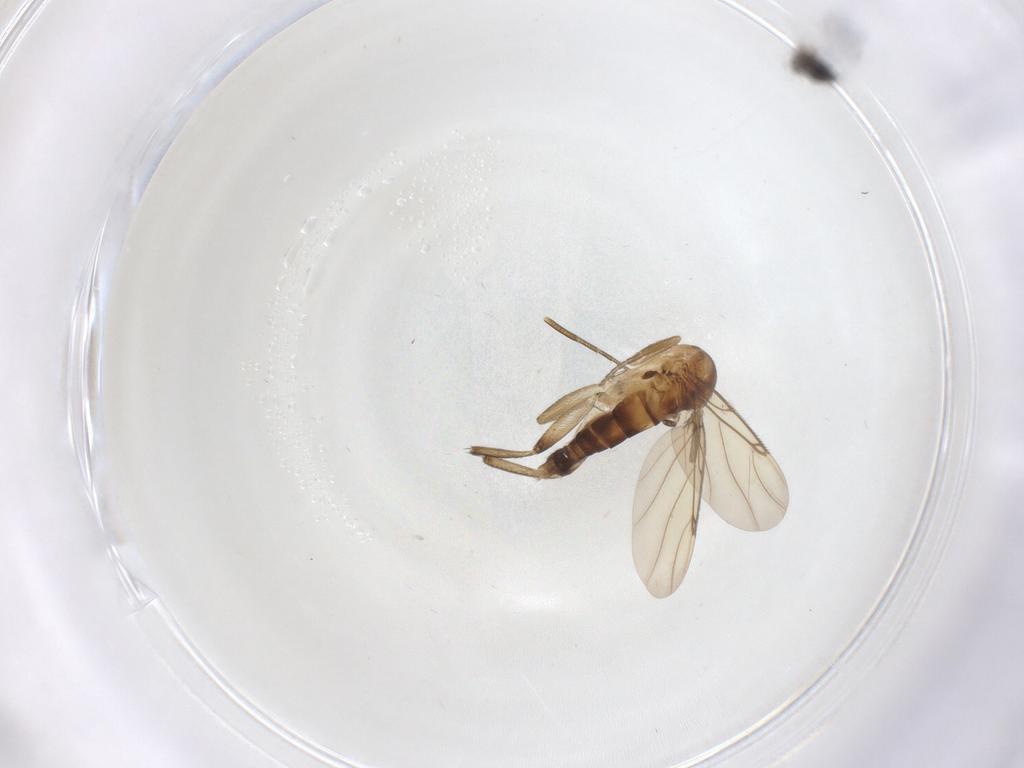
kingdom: Animalia
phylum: Arthropoda
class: Insecta
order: Diptera
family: Phoridae
